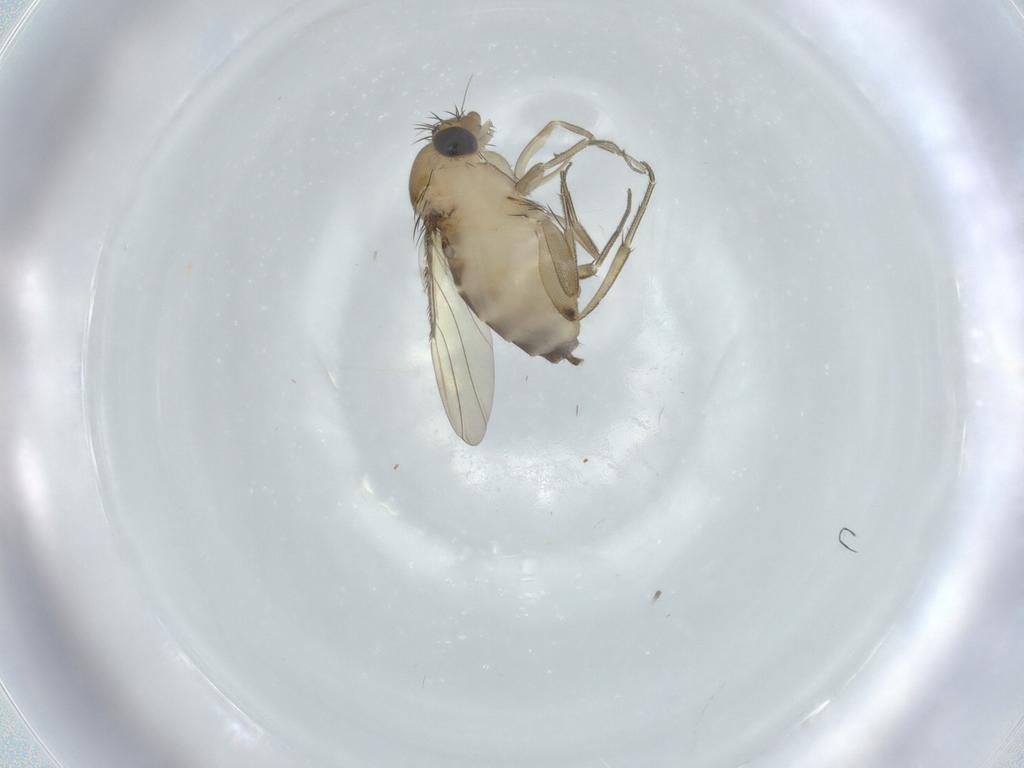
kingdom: Animalia
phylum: Arthropoda
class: Insecta
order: Diptera
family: Phoridae
